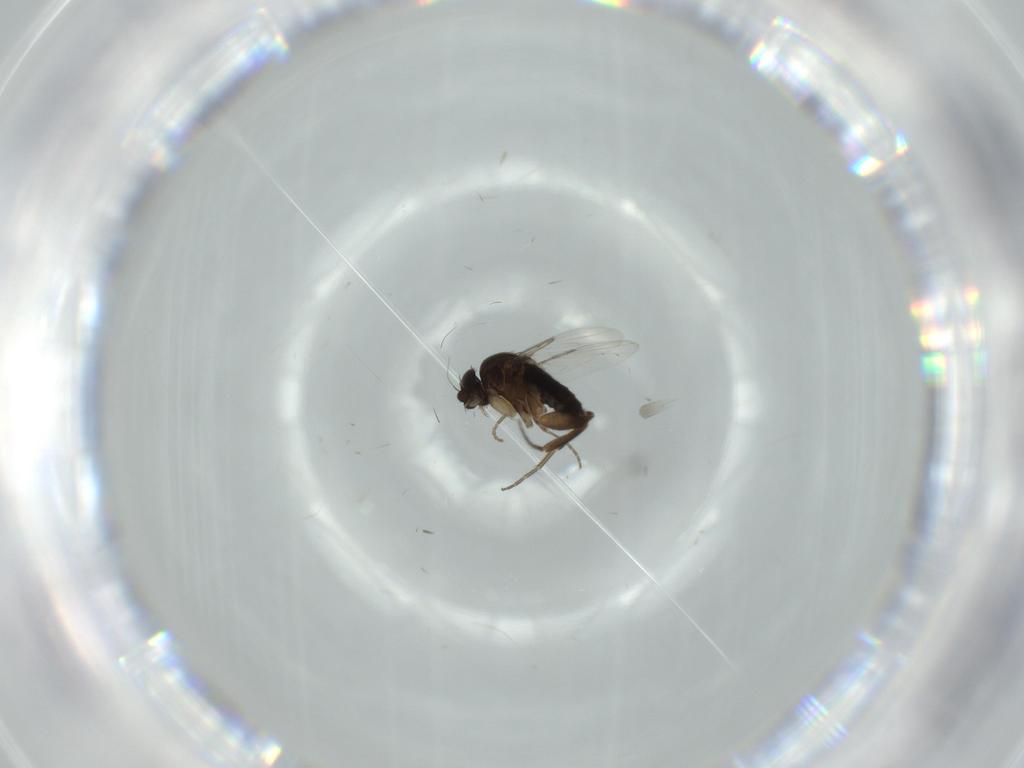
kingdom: Animalia
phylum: Arthropoda
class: Insecta
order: Diptera
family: Phoridae
